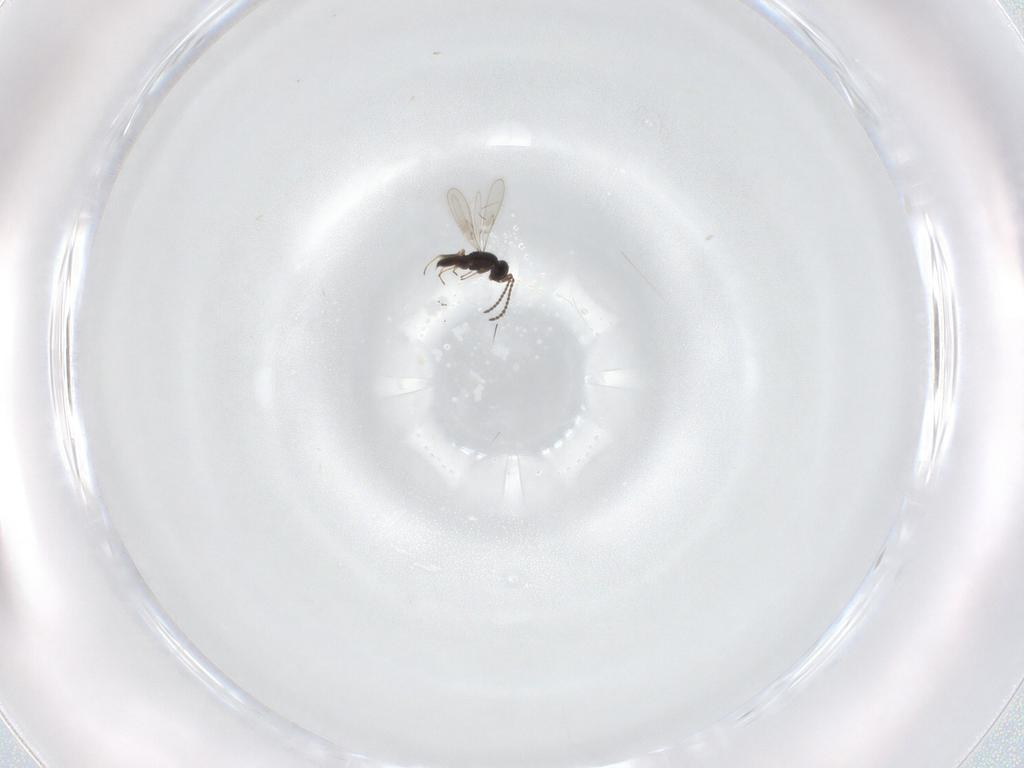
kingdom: Animalia
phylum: Arthropoda
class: Insecta
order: Hymenoptera
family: Scelionidae
